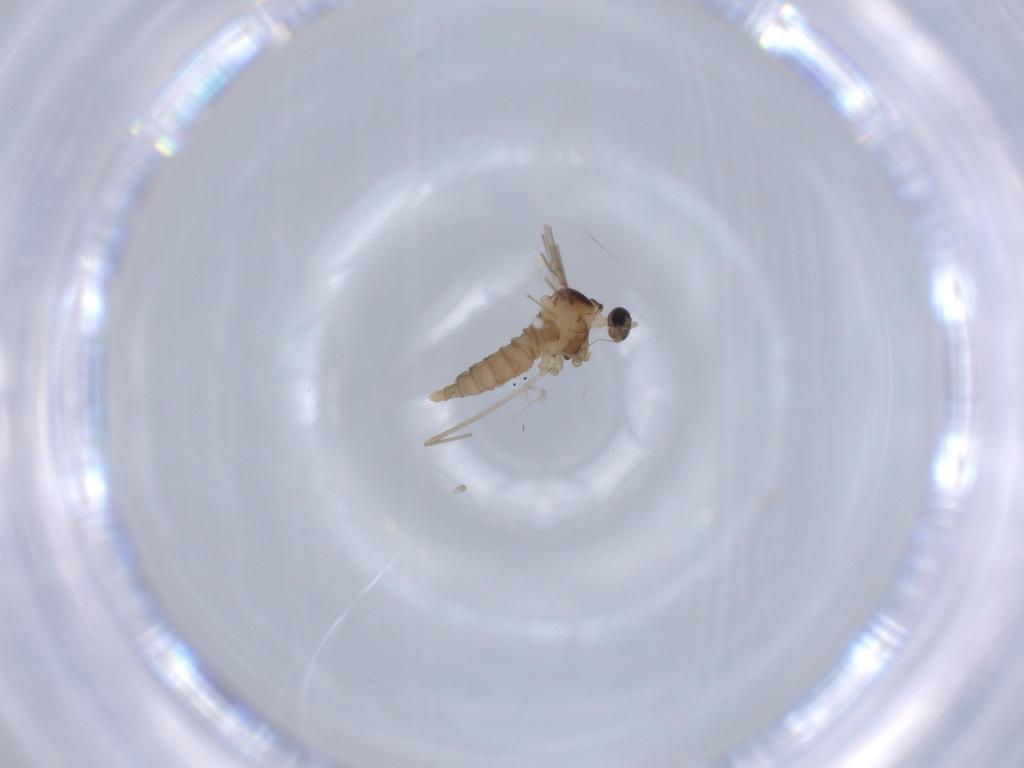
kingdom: Animalia
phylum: Arthropoda
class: Insecta
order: Diptera
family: Cecidomyiidae
